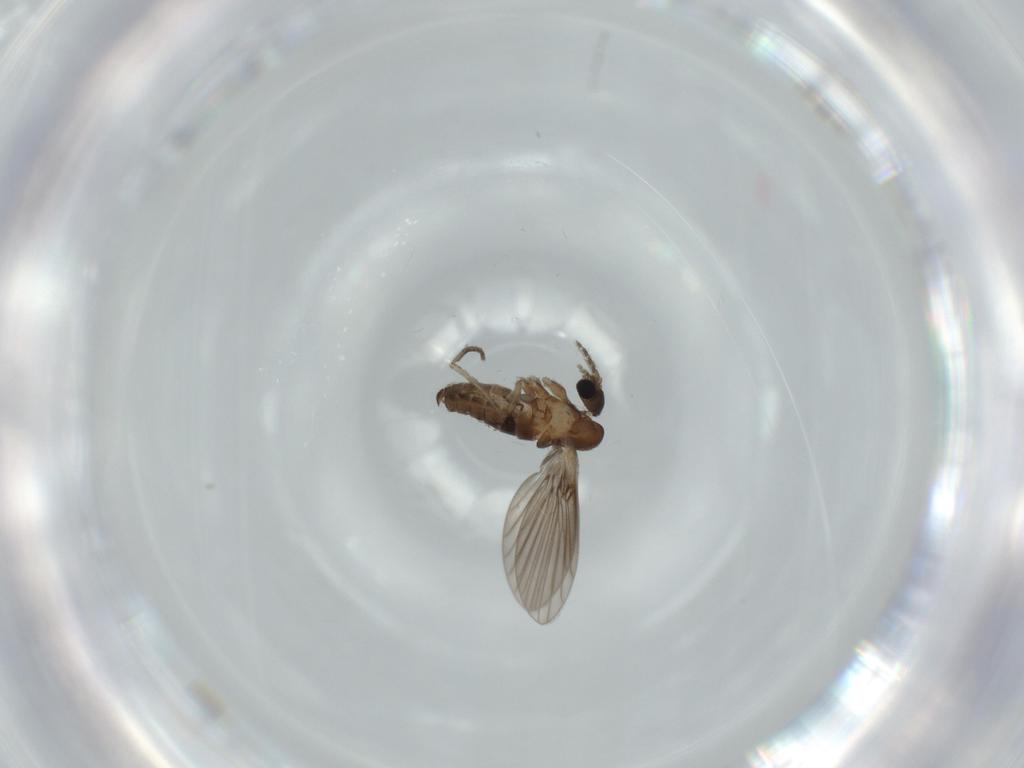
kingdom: Animalia
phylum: Arthropoda
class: Insecta
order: Diptera
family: Psychodidae
